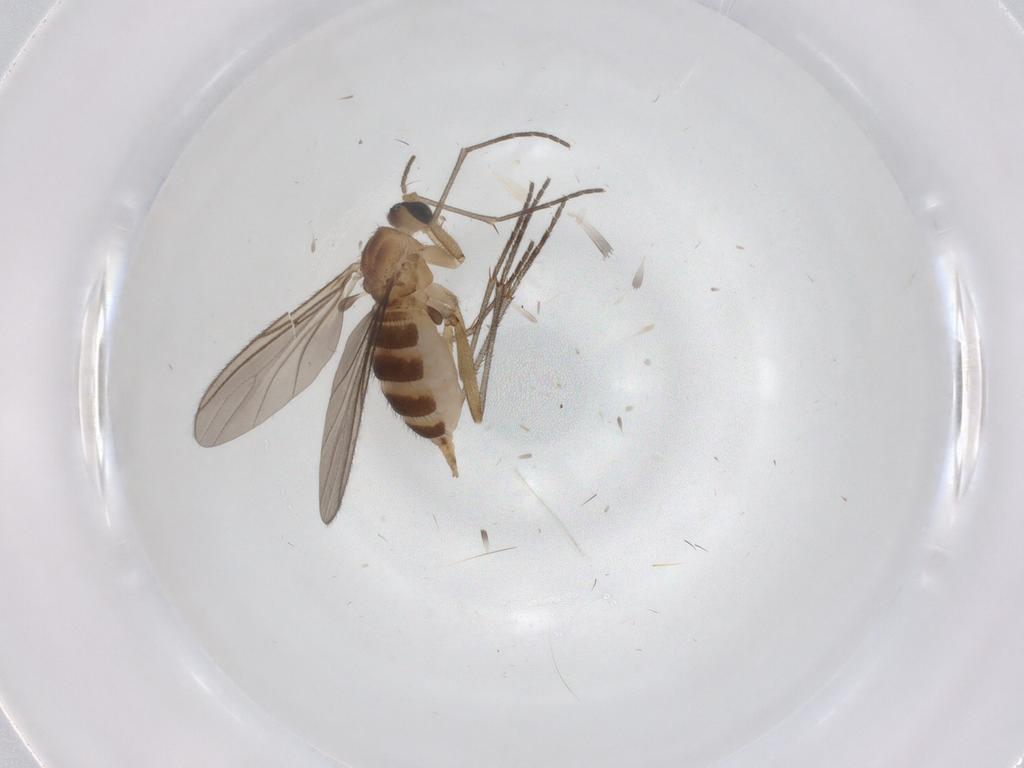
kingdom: Animalia
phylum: Arthropoda
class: Insecta
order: Diptera
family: Sciaridae
